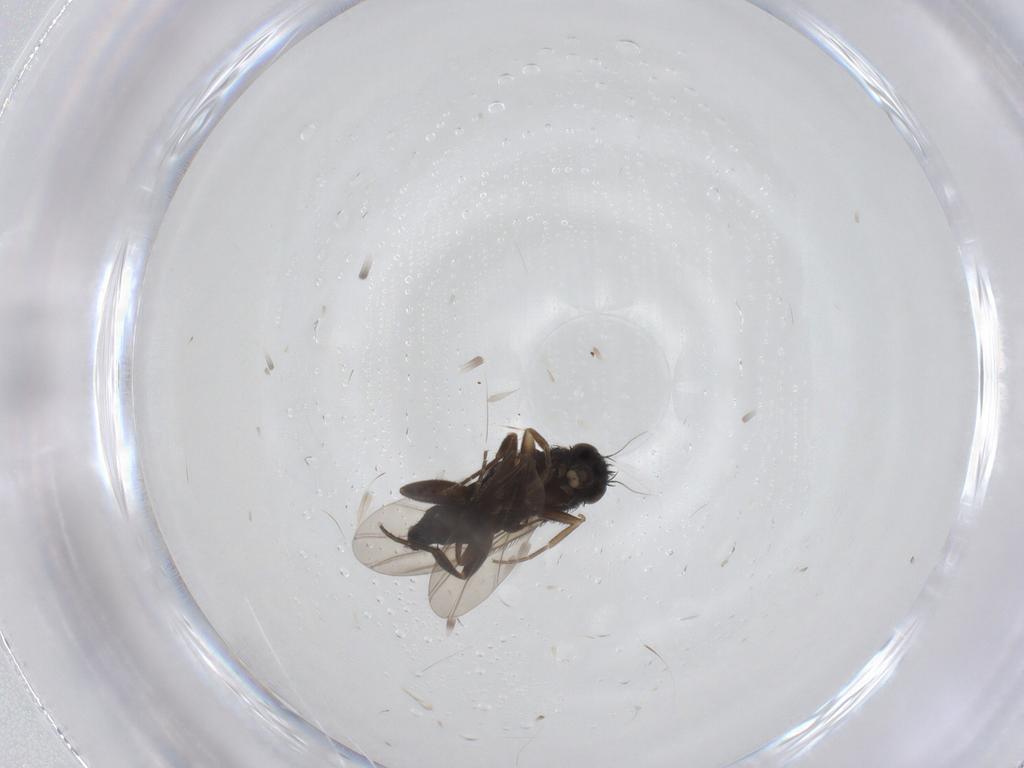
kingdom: Animalia
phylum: Arthropoda
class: Insecta
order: Diptera
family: Phoridae
